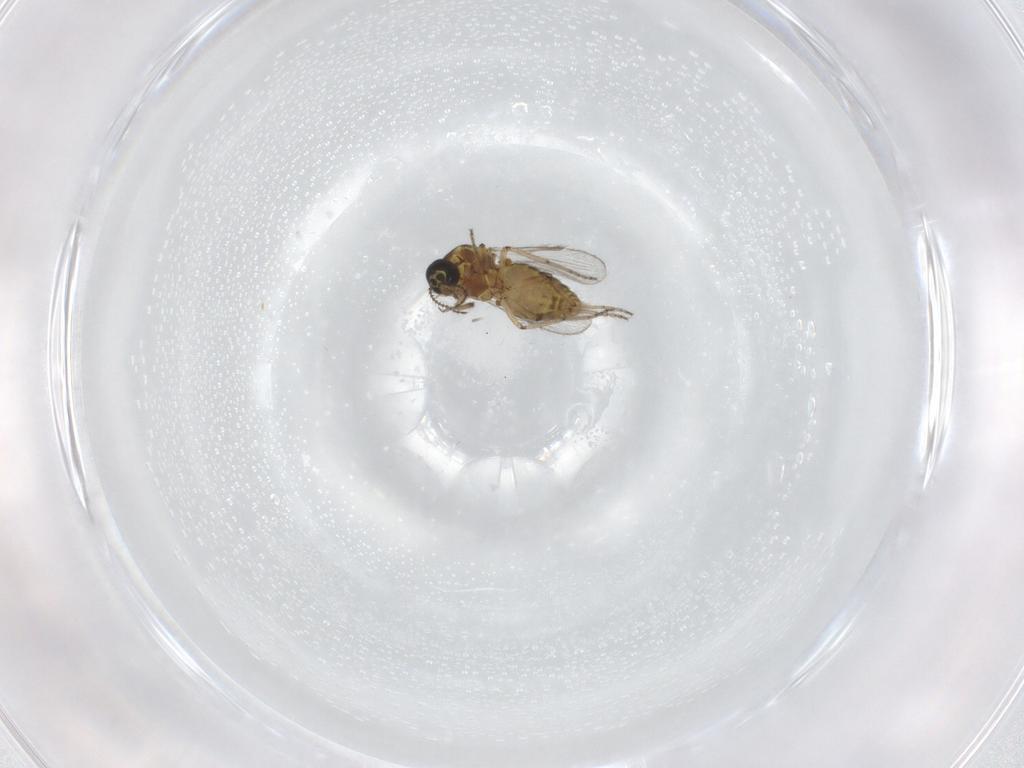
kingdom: Animalia
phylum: Arthropoda
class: Insecta
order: Diptera
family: Ceratopogonidae
